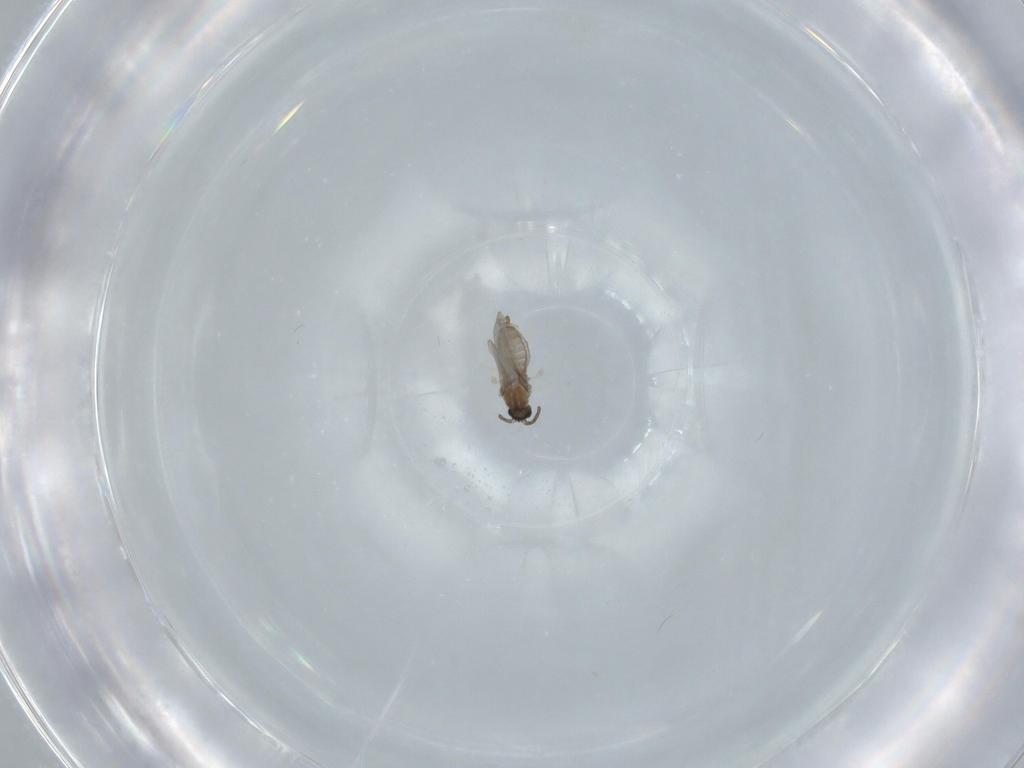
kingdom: Animalia
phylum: Arthropoda
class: Insecta
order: Diptera
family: Cecidomyiidae
